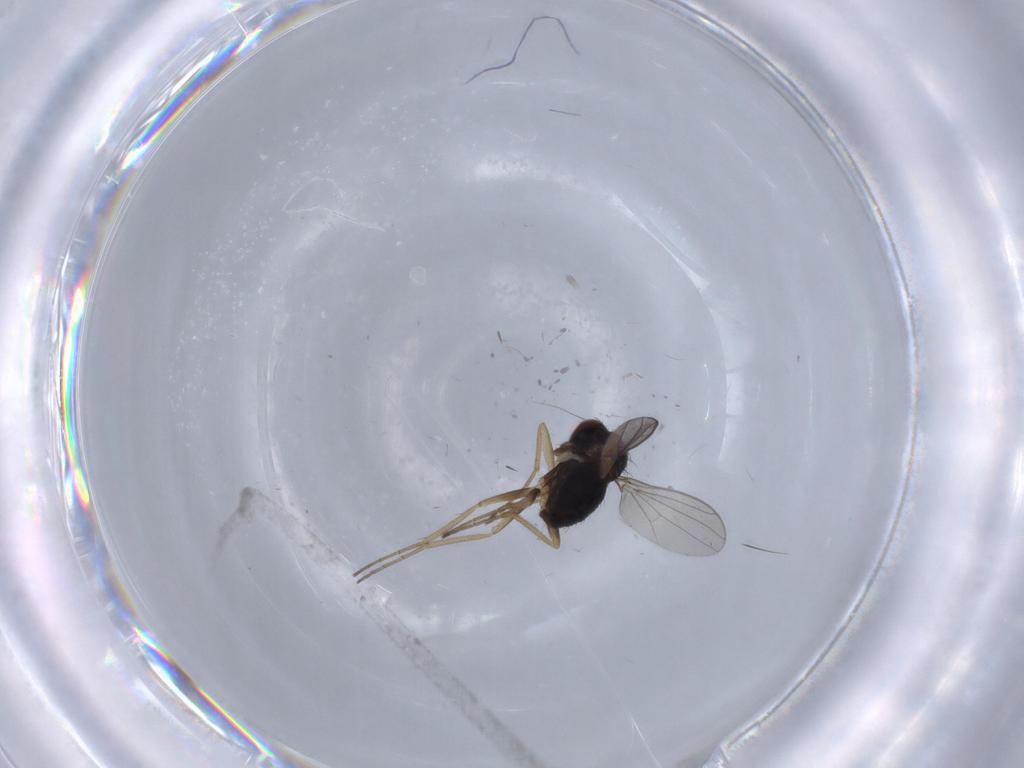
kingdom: Animalia
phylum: Arthropoda
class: Insecta
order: Diptera
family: Dolichopodidae
